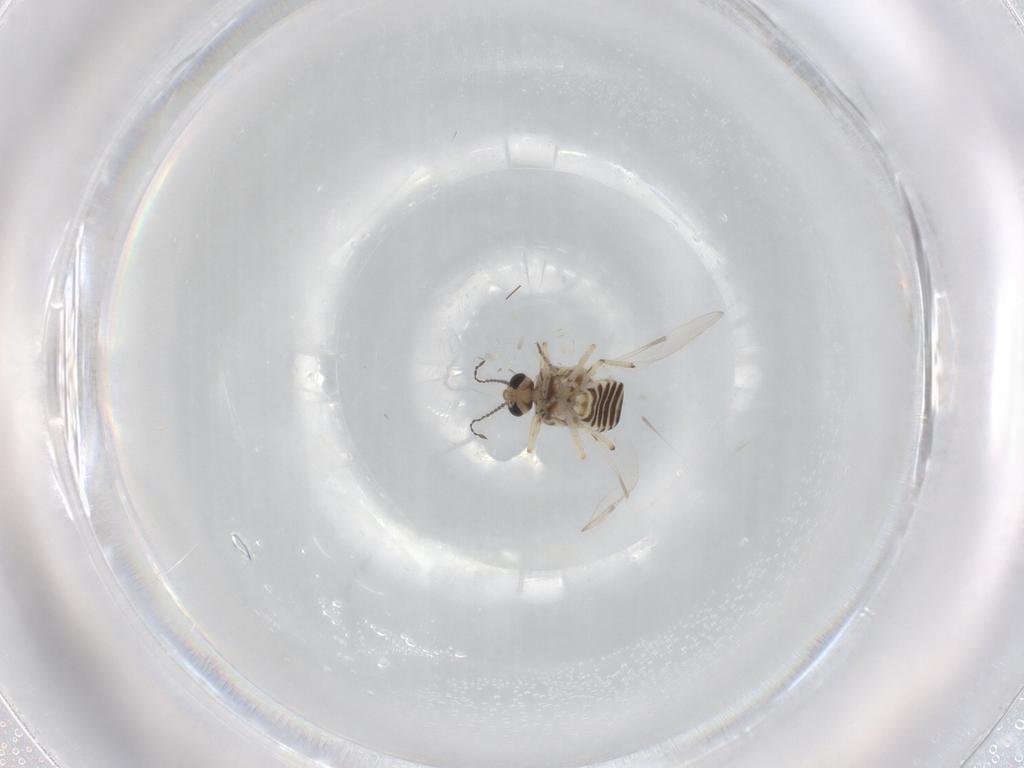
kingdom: Animalia
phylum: Arthropoda
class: Insecta
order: Diptera
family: Ceratopogonidae
